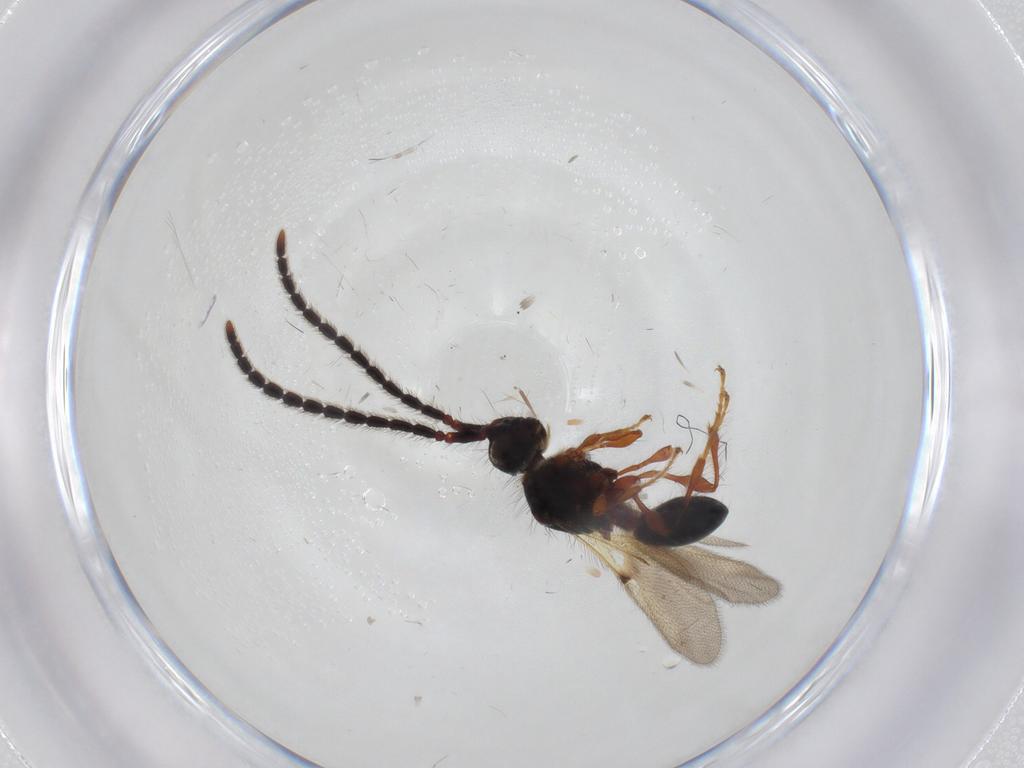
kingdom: Animalia
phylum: Arthropoda
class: Insecta
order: Hymenoptera
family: Diapriidae
